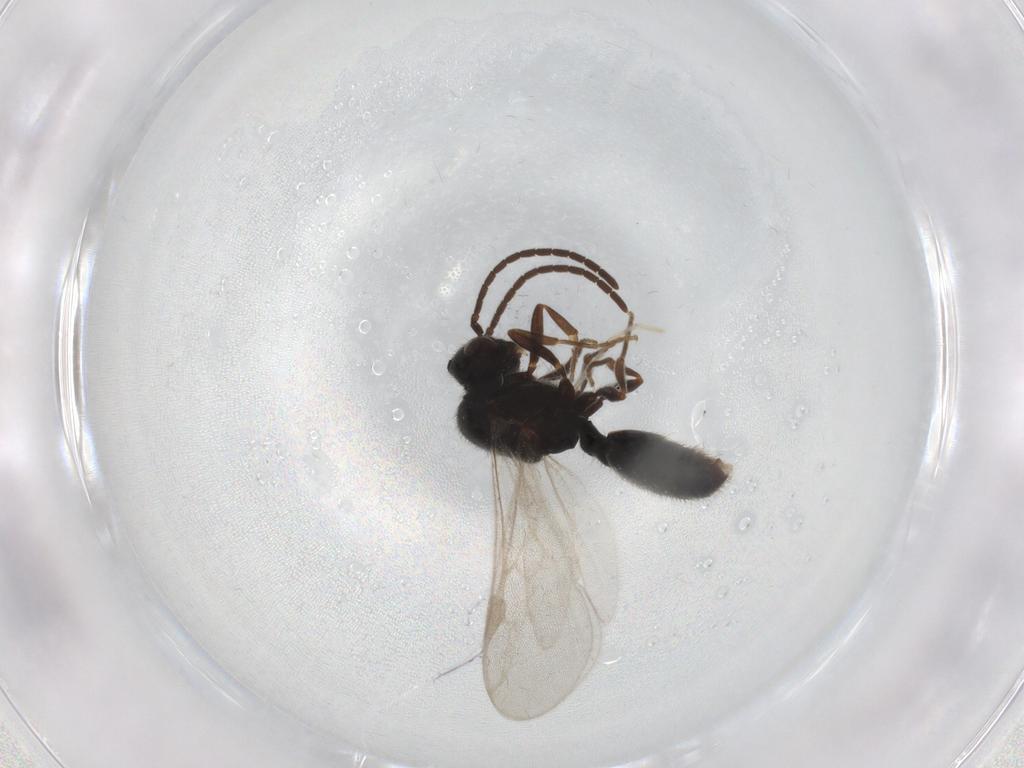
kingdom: Animalia
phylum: Arthropoda
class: Insecta
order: Hymenoptera
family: Formicidae
